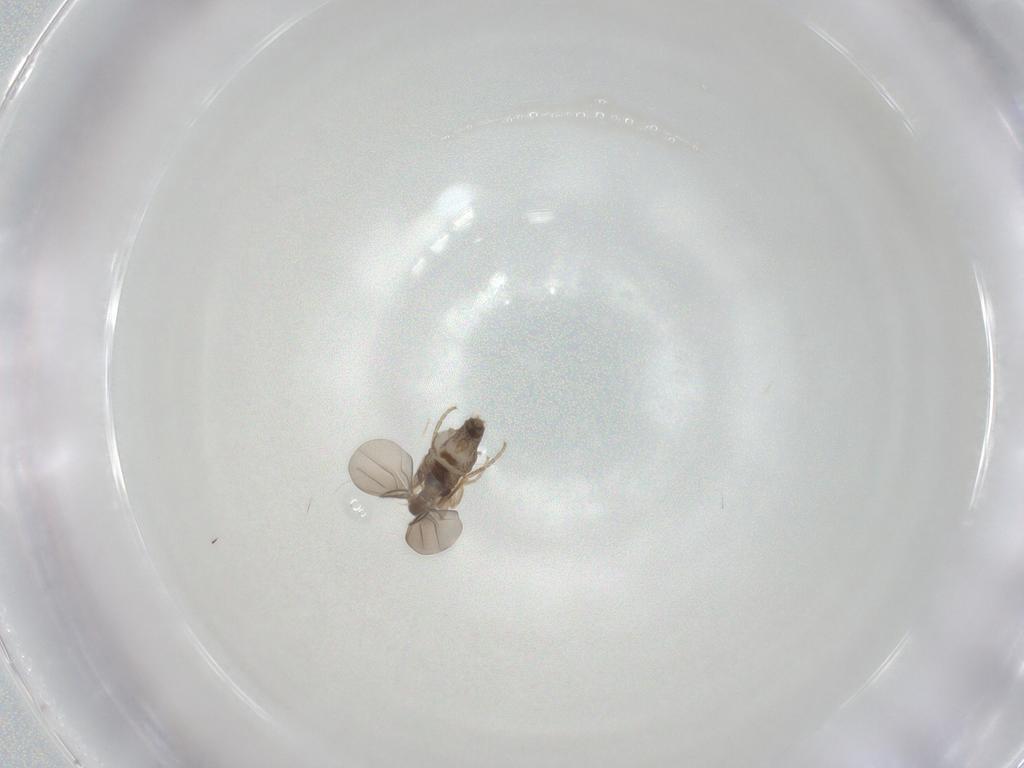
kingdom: Animalia
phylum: Arthropoda
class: Insecta
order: Diptera
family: Phoridae
